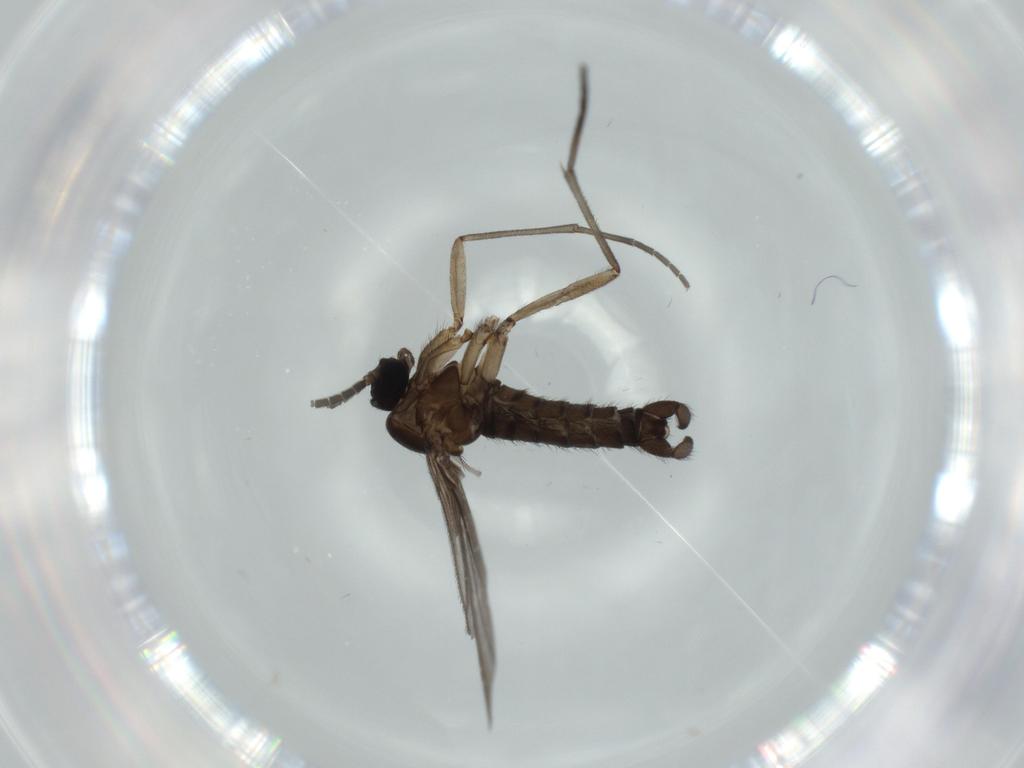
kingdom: Animalia
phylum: Arthropoda
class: Insecta
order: Diptera
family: Sciaridae
